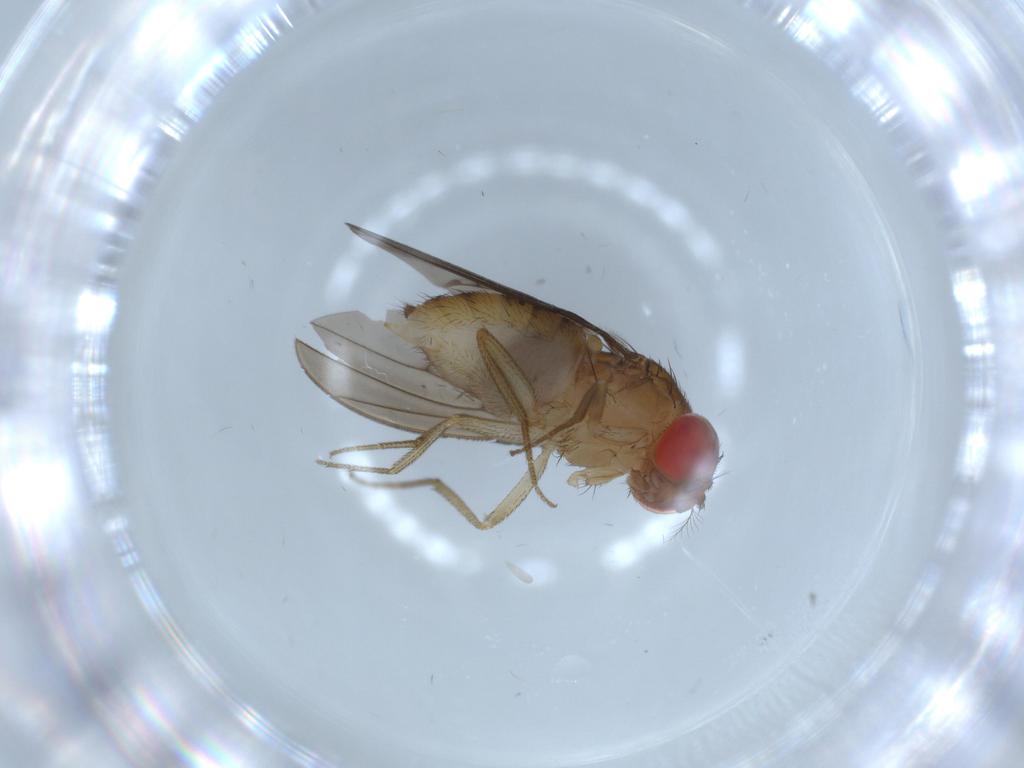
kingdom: Animalia
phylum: Arthropoda
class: Insecta
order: Diptera
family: Drosophilidae
